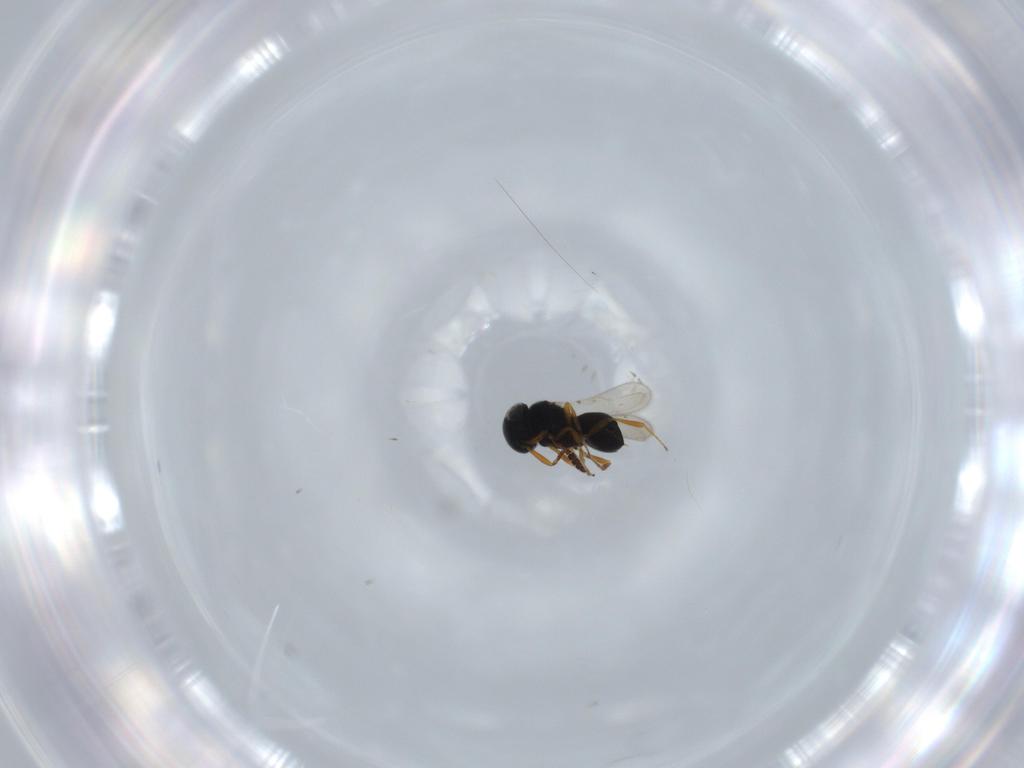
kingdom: Animalia
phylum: Arthropoda
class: Insecta
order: Hymenoptera
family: Scelionidae
